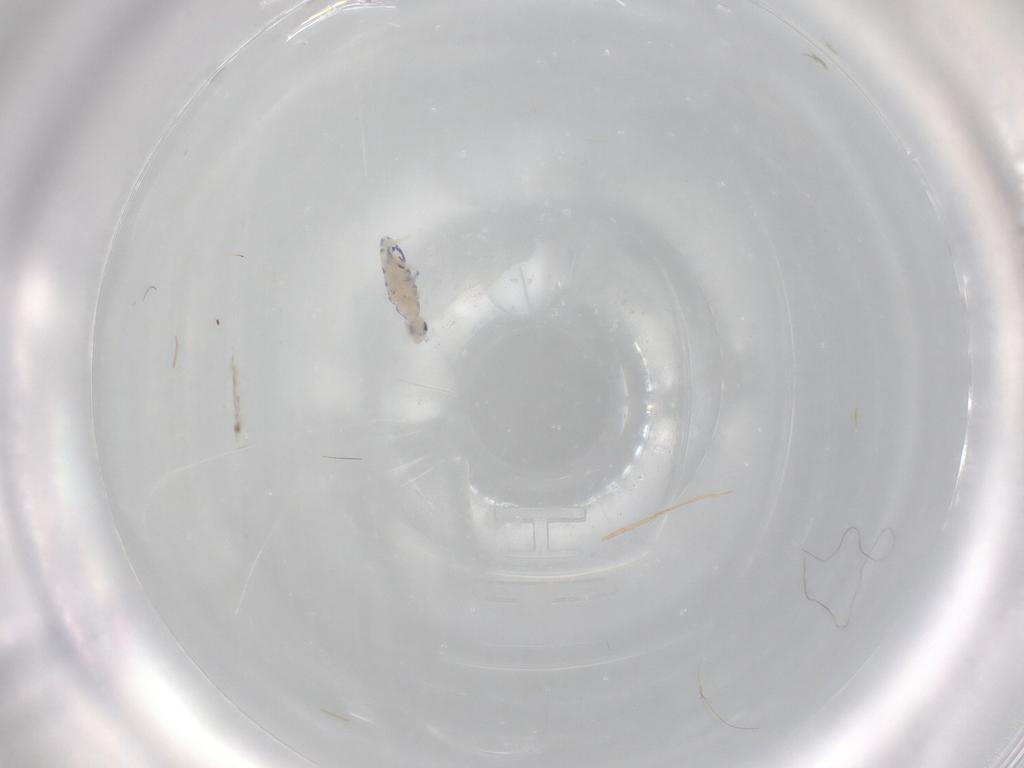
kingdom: Animalia
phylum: Arthropoda
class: Collembola
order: Entomobryomorpha
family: Entomobryidae
